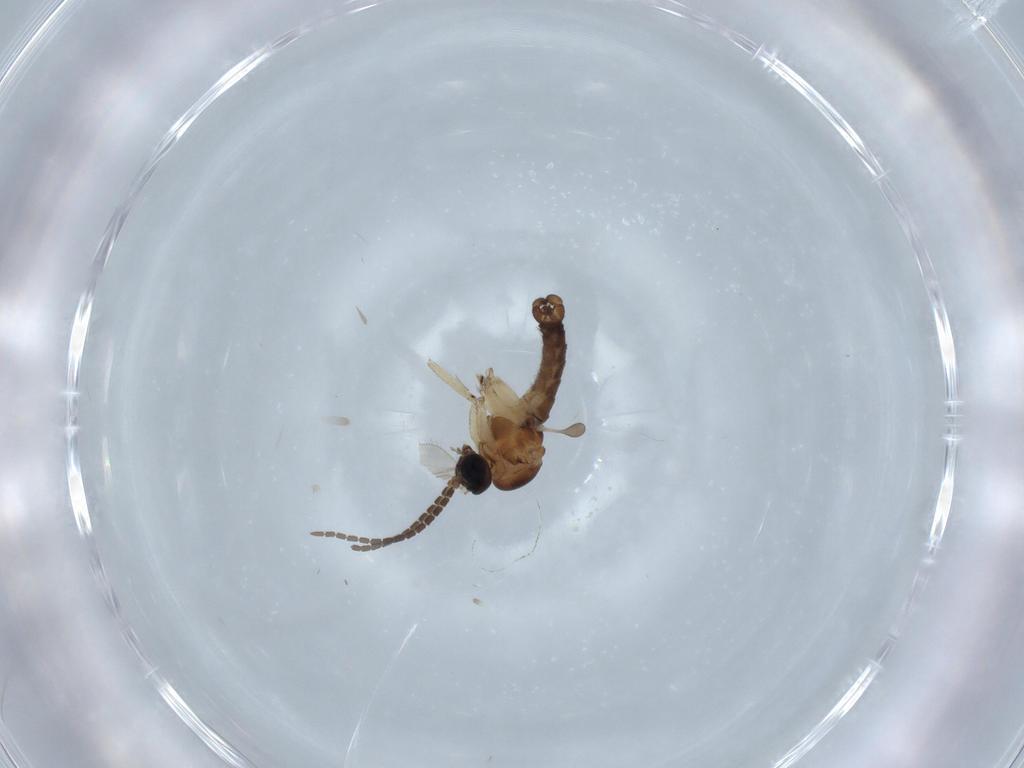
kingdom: Animalia
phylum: Arthropoda
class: Insecta
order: Diptera
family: Sciaridae
